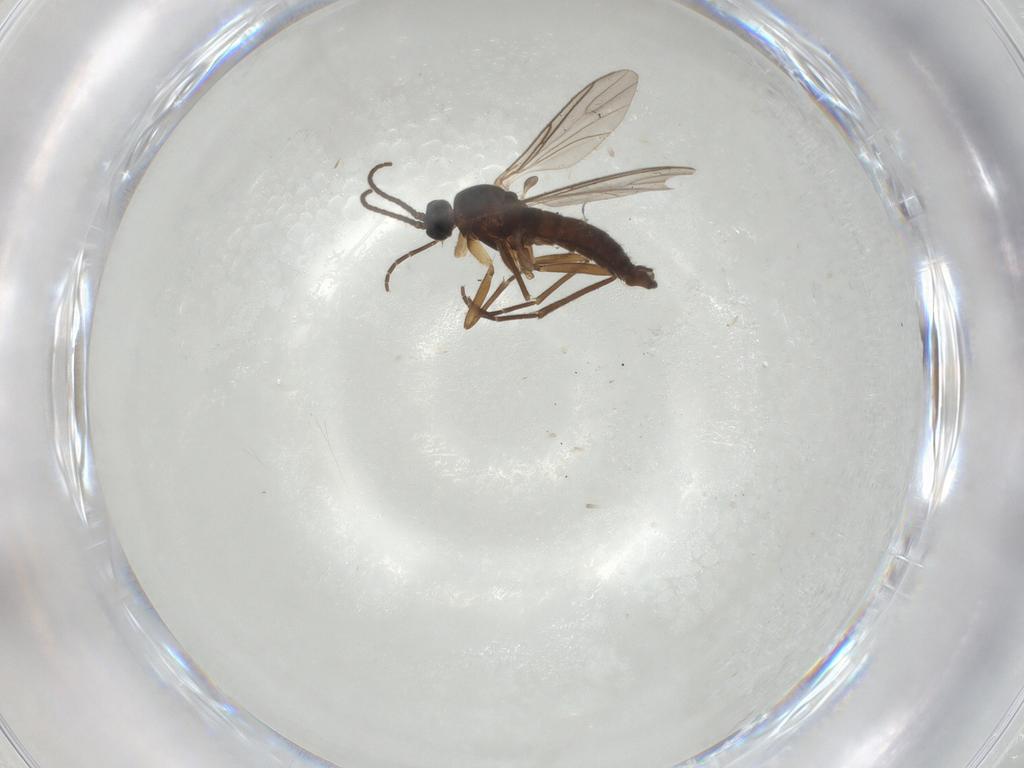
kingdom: Animalia
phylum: Arthropoda
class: Insecta
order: Diptera
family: Sciaridae
